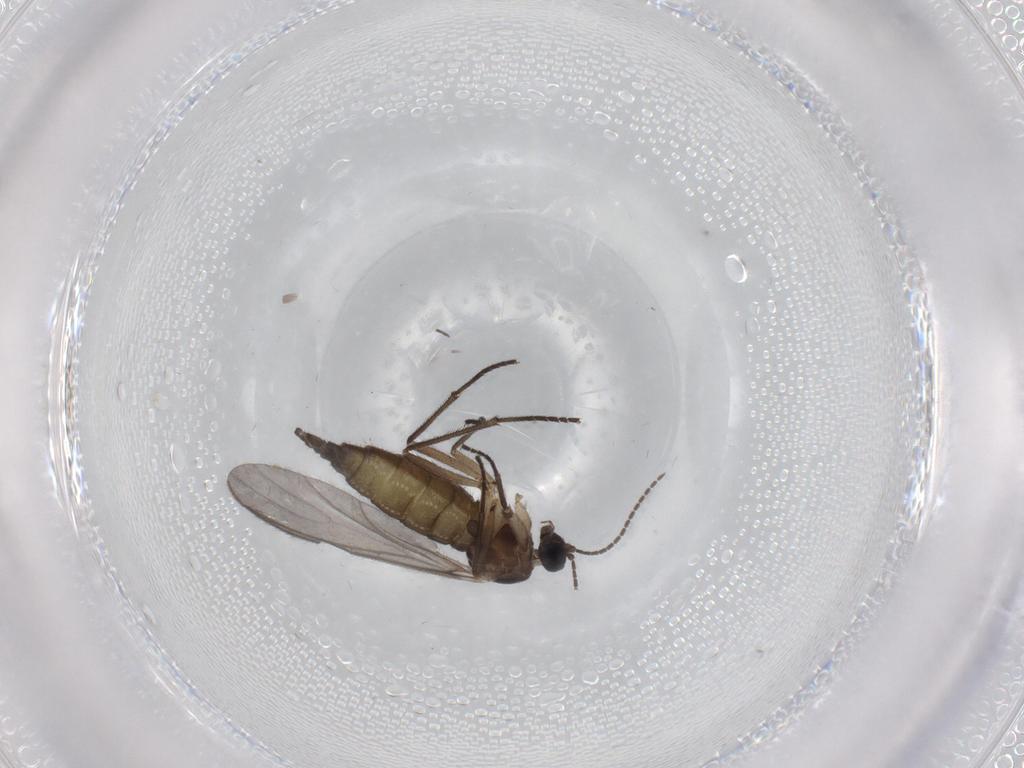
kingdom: Animalia
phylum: Arthropoda
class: Insecta
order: Diptera
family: Sciaridae
